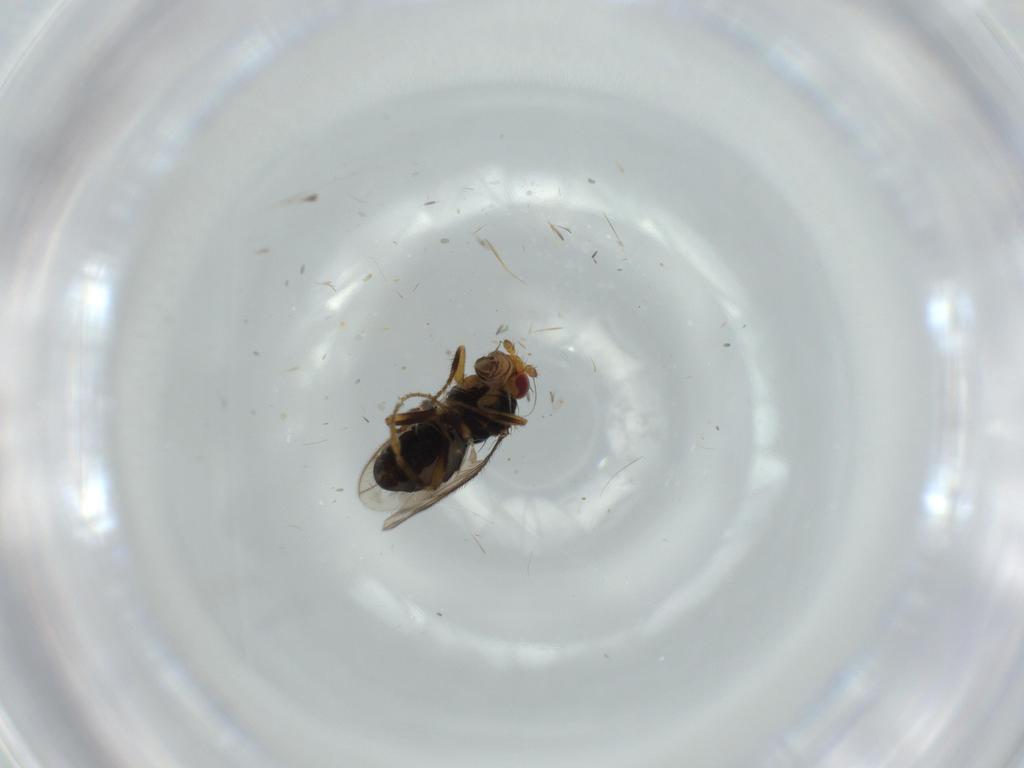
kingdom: Animalia
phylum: Arthropoda
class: Insecta
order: Diptera
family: Sphaeroceridae
